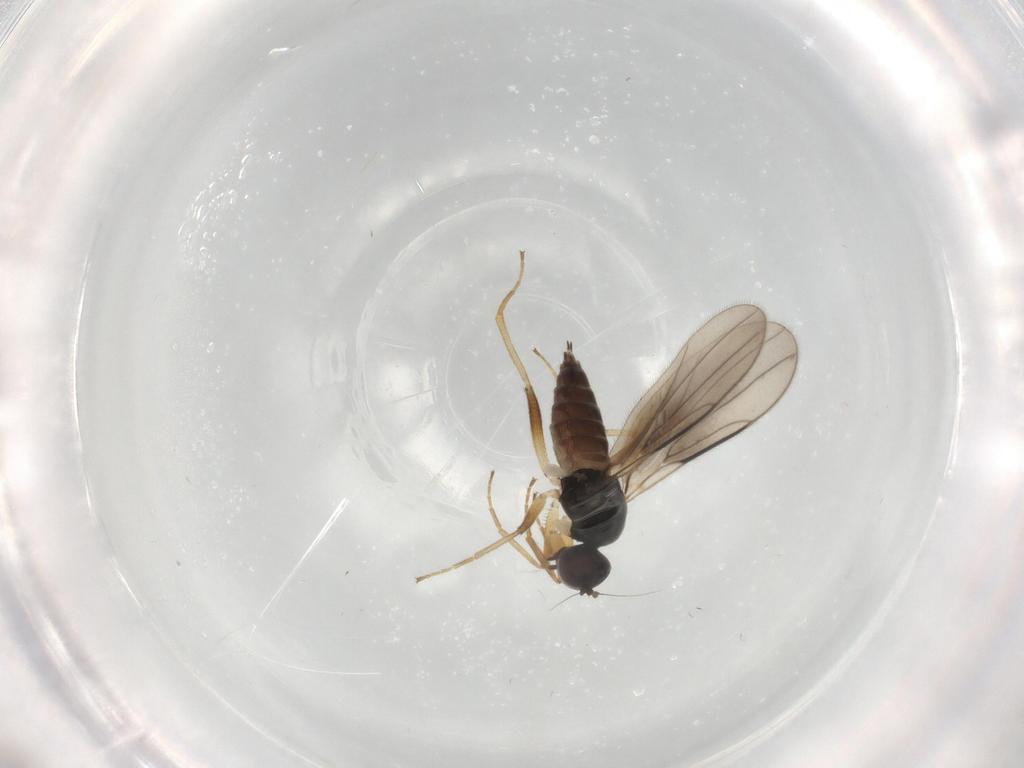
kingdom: Animalia
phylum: Arthropoda
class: Insecta
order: Diptera
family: Hybotidae
